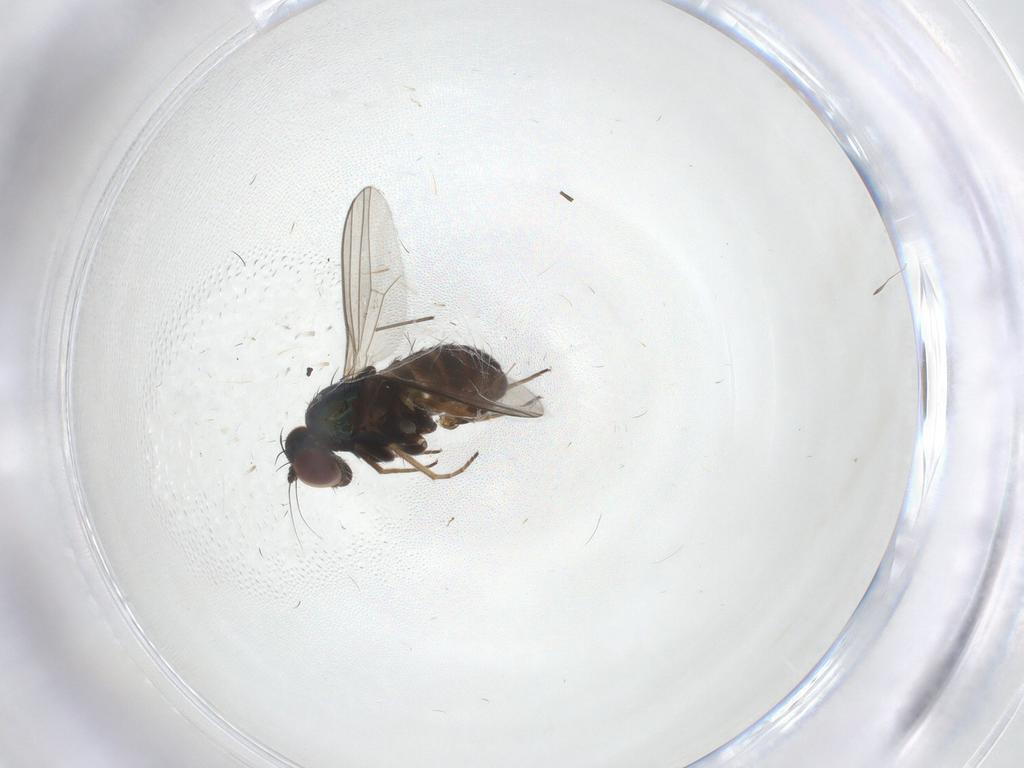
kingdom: Animalia
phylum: Arthropoda
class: Insecta
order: Diptera
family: Dolichopodidae
